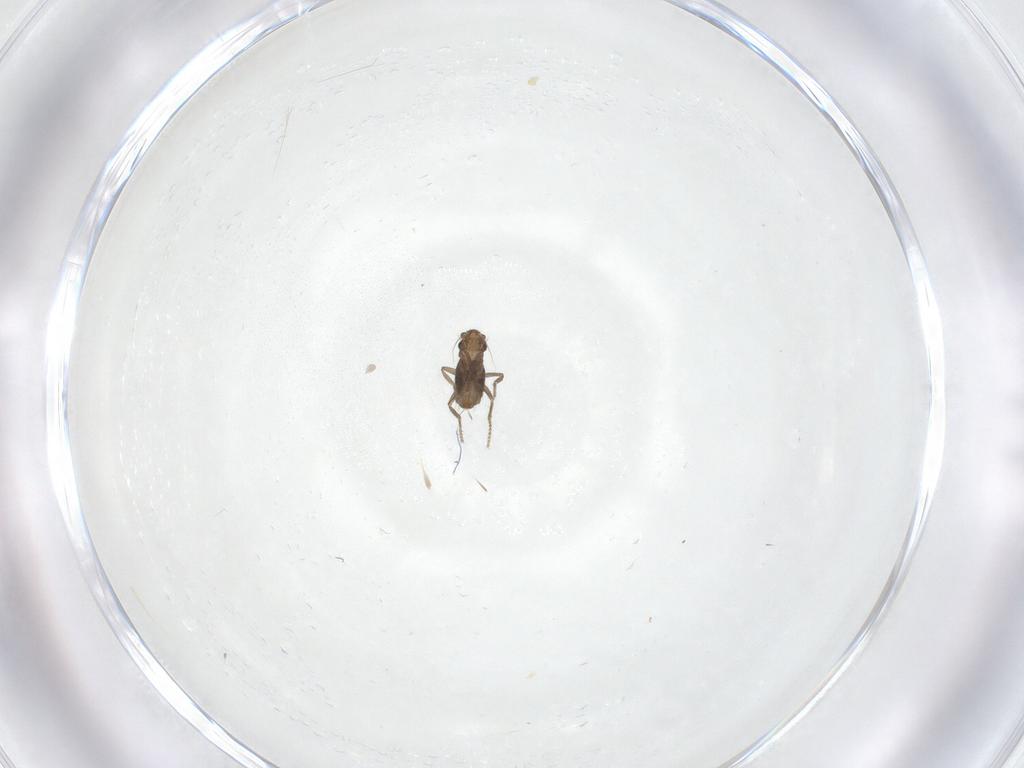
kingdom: Animalia
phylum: Arthropoda
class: Insecta
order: Diptera
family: Phoridae
